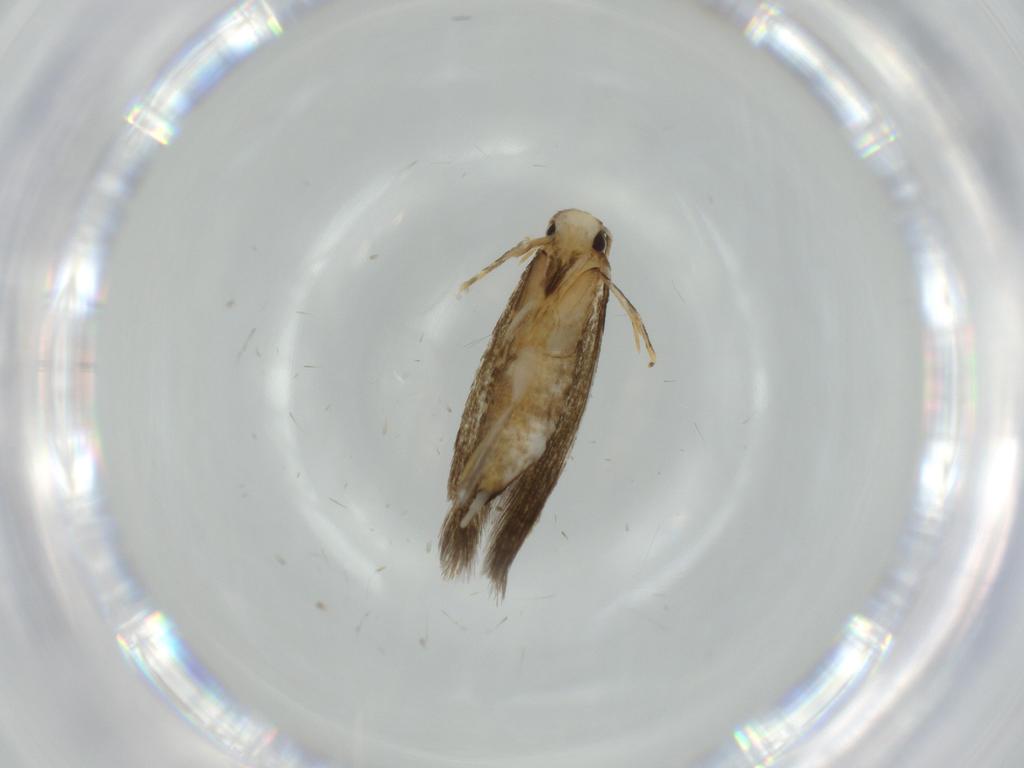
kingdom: Animalia
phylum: Arthropoda
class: Insecta
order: Lepidoptera
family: Tineidae
